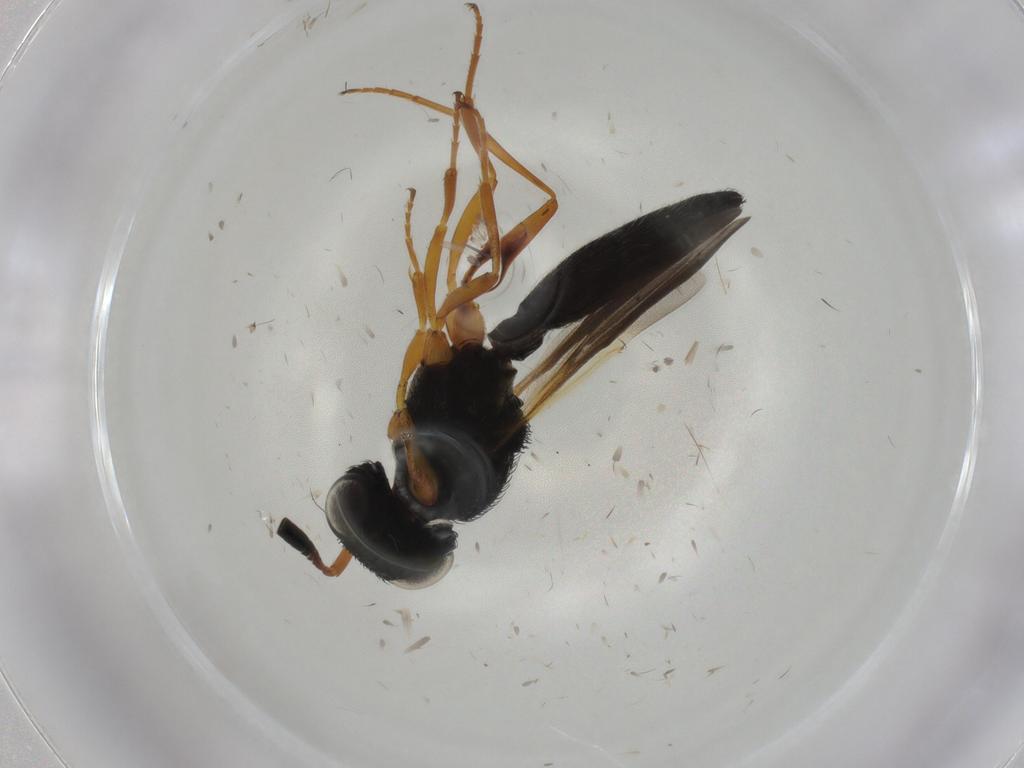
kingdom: Animalia
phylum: Arthropoda
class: Insecta
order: Hymenoptera
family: Scelionidae
